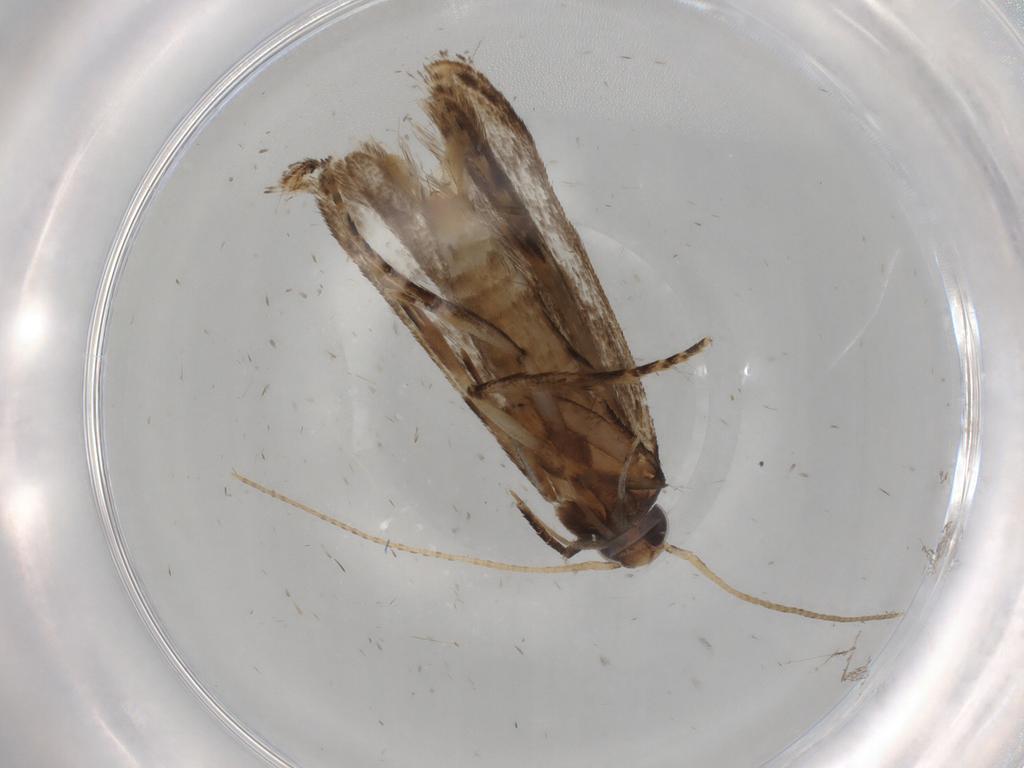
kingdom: Animalia
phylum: Arthropoda
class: Insecta
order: Lepidoptera
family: Gelechiidae
